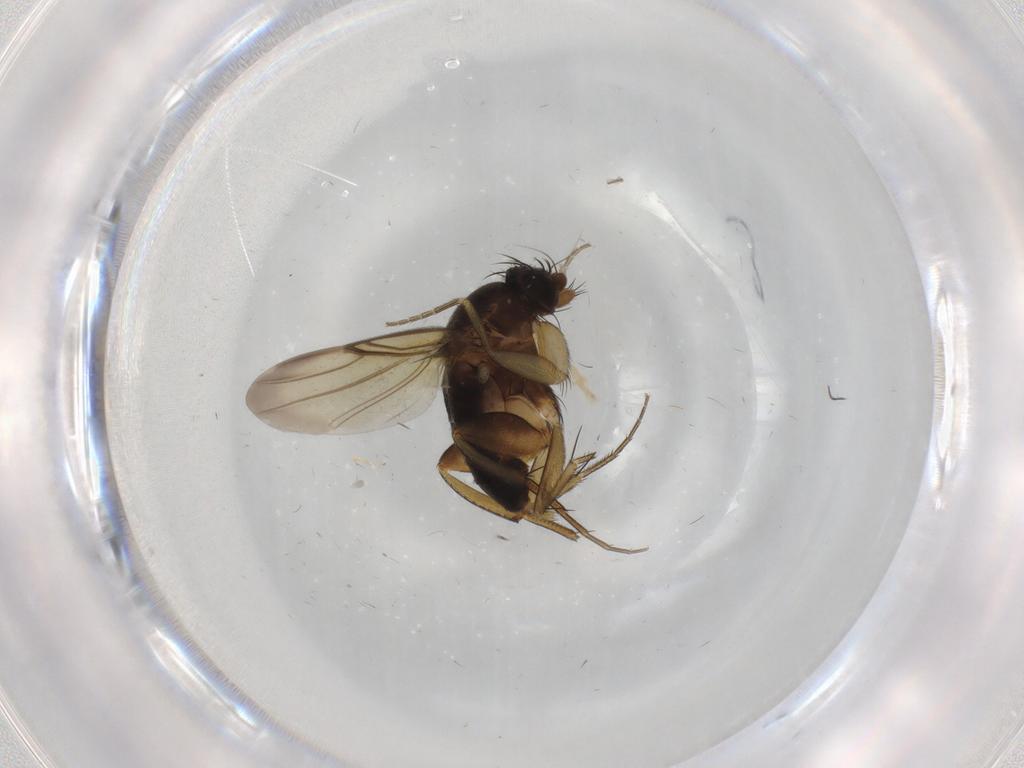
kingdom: Animalia
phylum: Arthropoda
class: Insecta
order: Diptera
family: Phoridae
